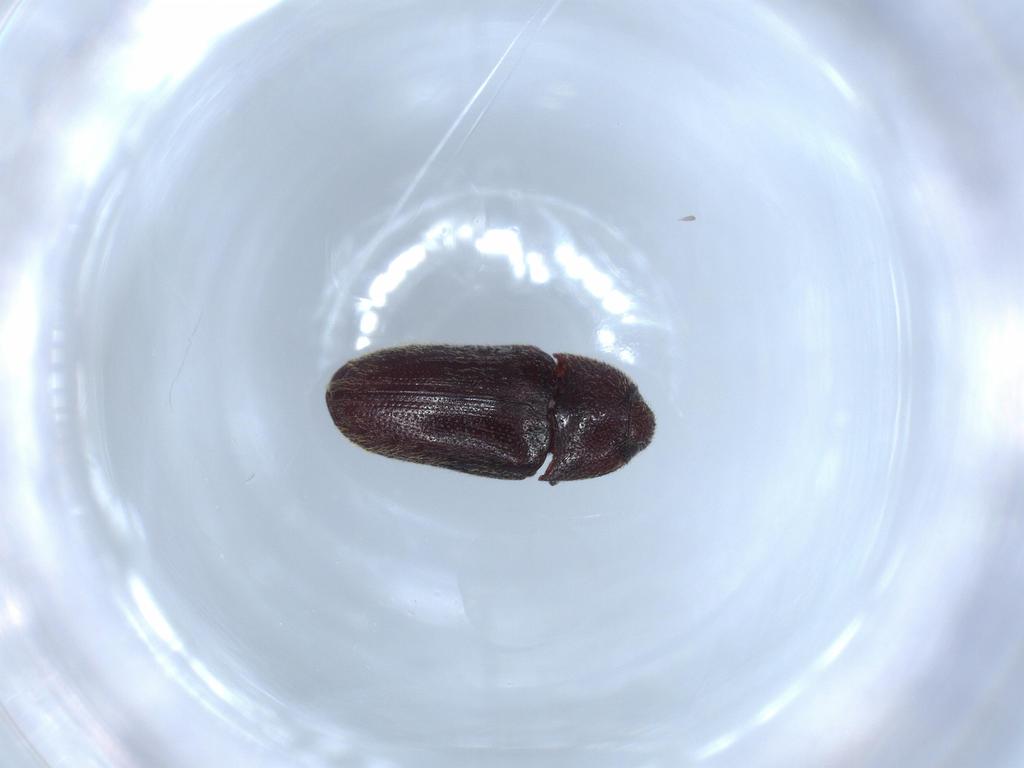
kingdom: Animalia
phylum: Arthropoda
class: Insecta
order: Coleoptera
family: Throscidae
